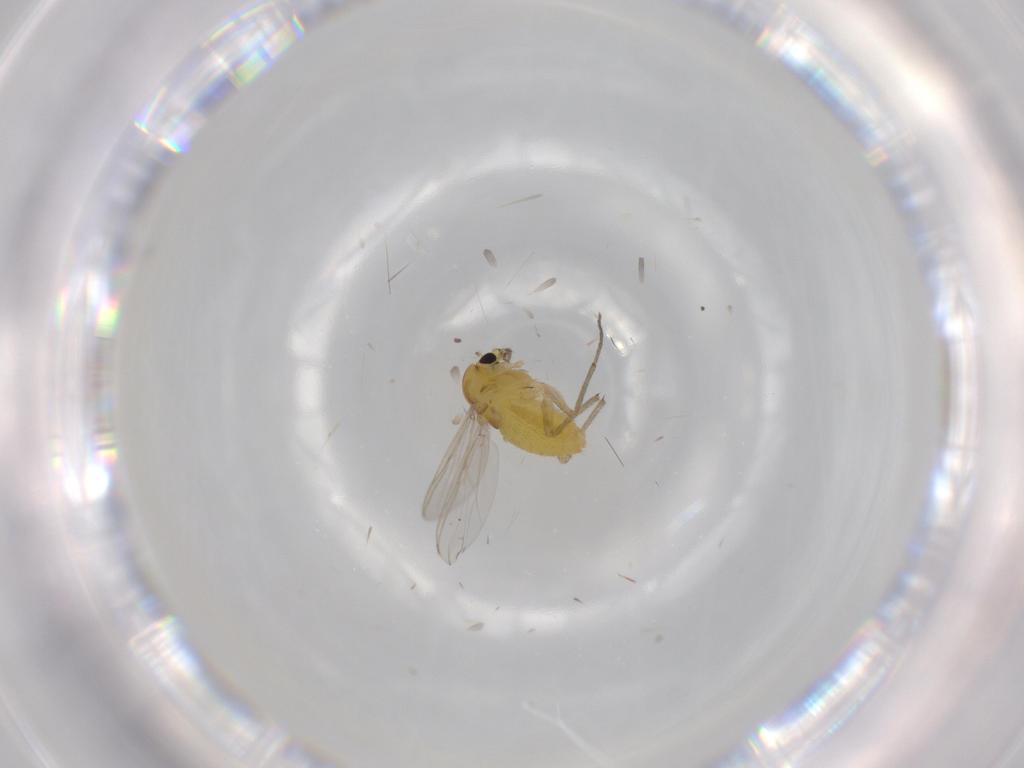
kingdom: Animalia
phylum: Arthropoda
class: Insecta
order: Diptera
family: Chironomidae
